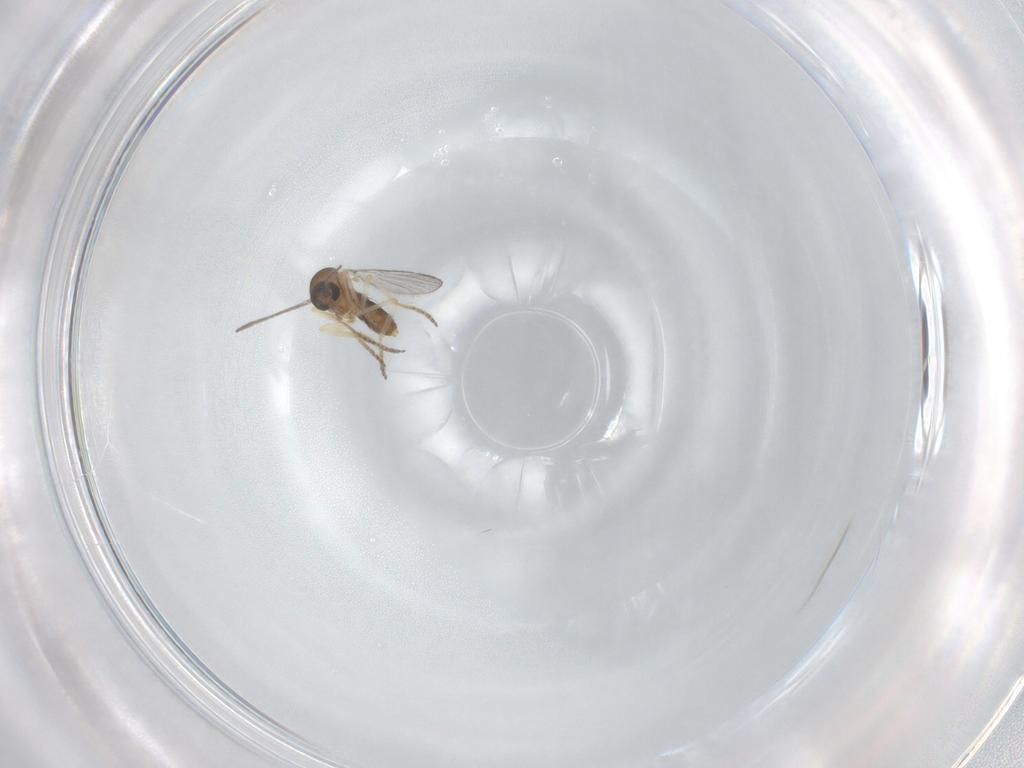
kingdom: Animalia
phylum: Arthropoda
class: Insecta
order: Diptera
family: Ceratopogonidae
